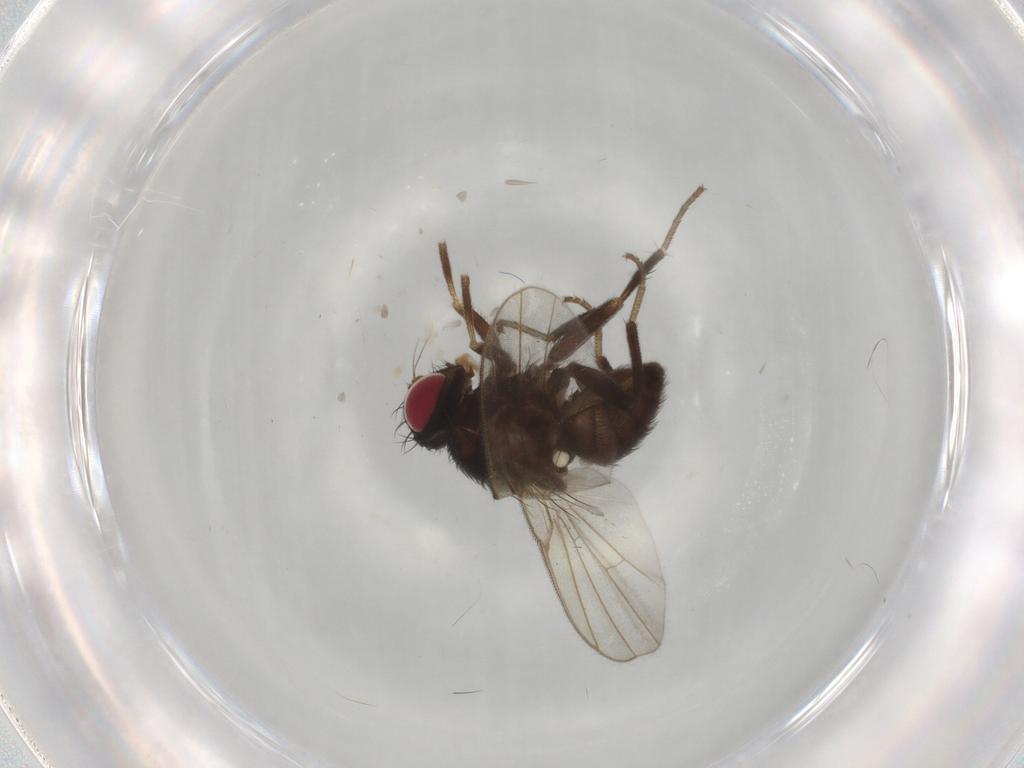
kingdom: Animalia
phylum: Arthropoda
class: Insecta
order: Diptera
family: Agromyzidae
